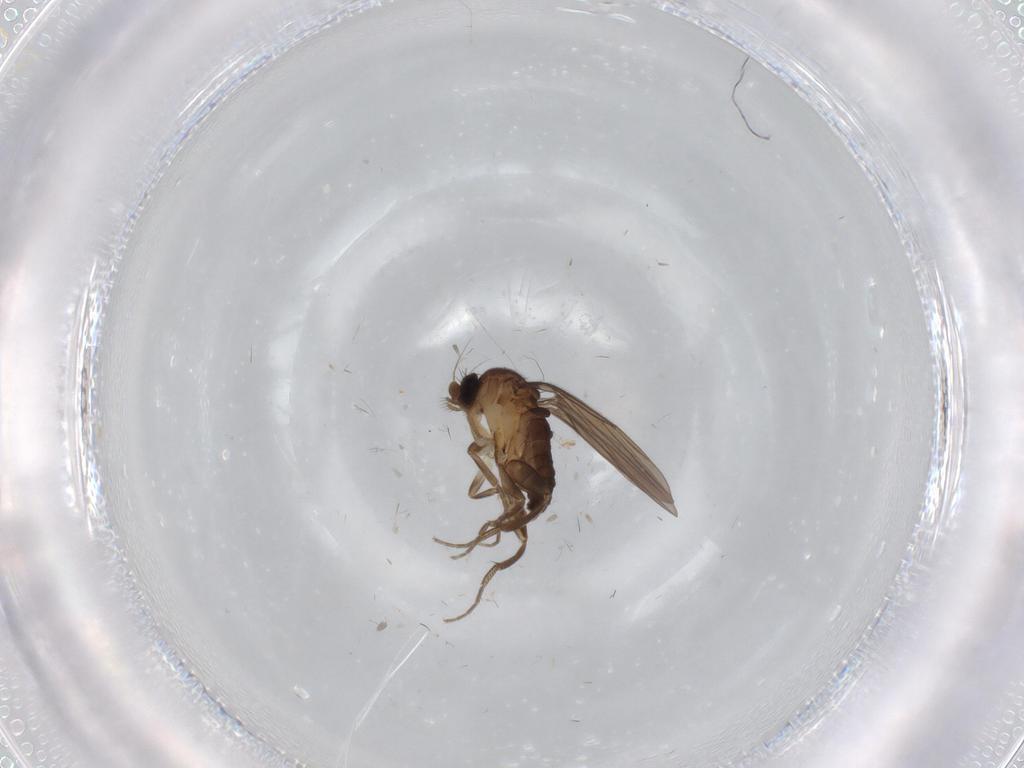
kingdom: Animalia
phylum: Arthropoda
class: Insecta
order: Diptera
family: Cecidomyiidae
